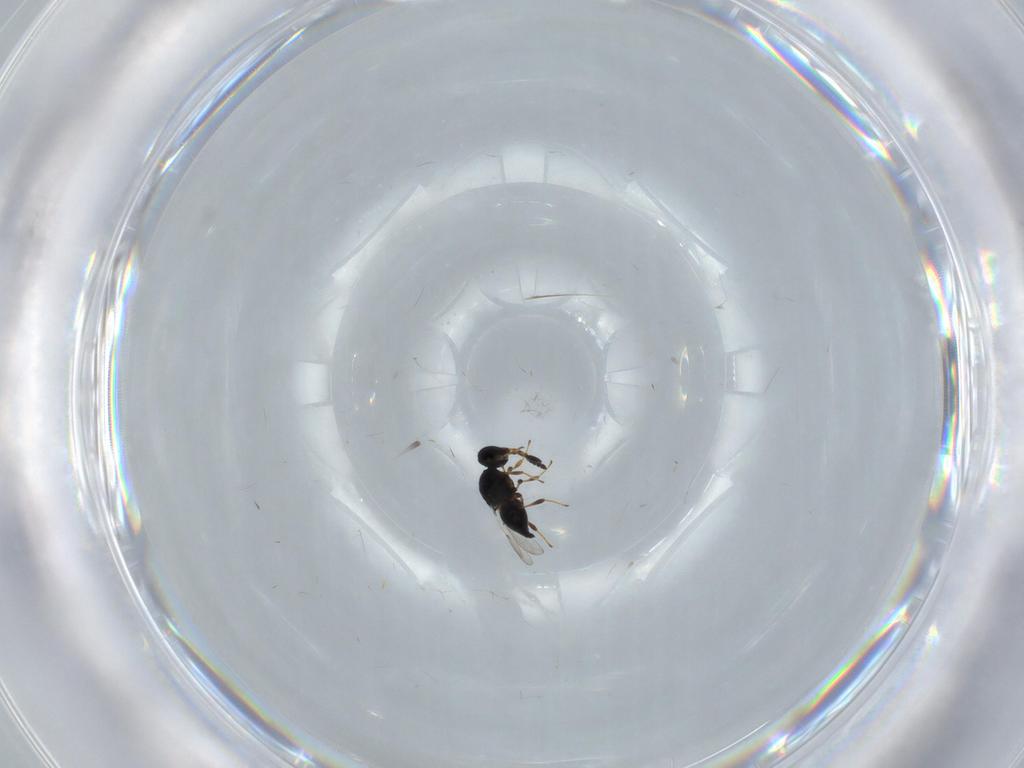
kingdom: Animalia
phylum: Arthropoda
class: Insecta
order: Hymenoptera
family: Platygastridae
